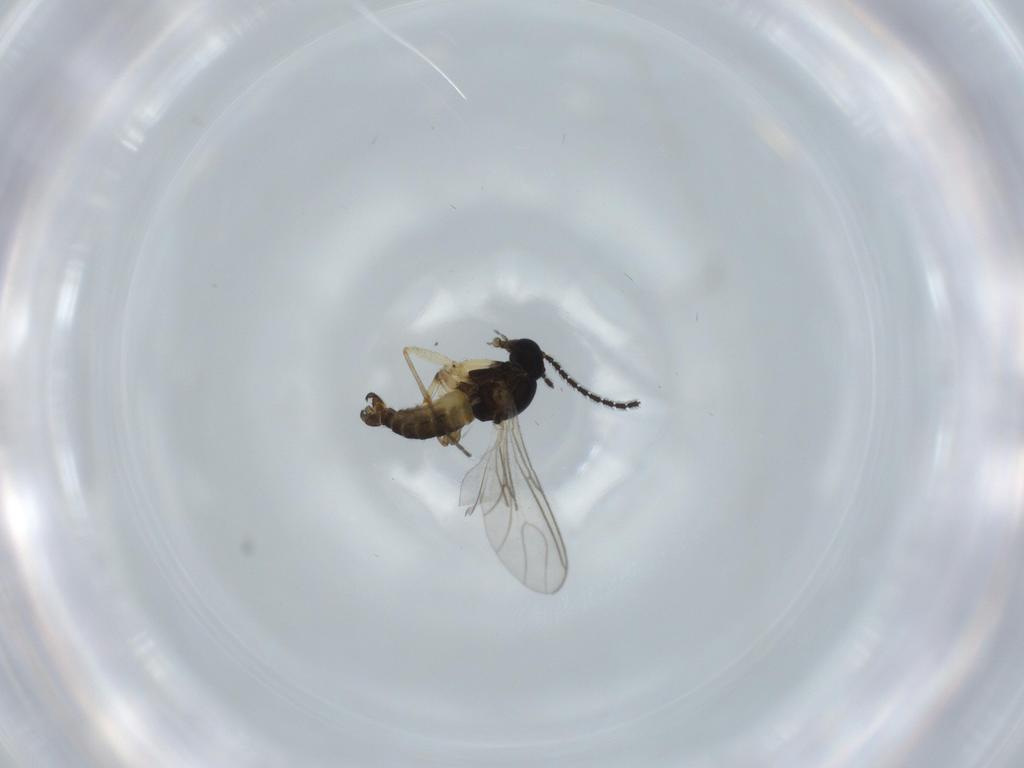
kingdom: Animalia
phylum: Arthropoda
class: Insecta
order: Diptera
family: Sciaridae
